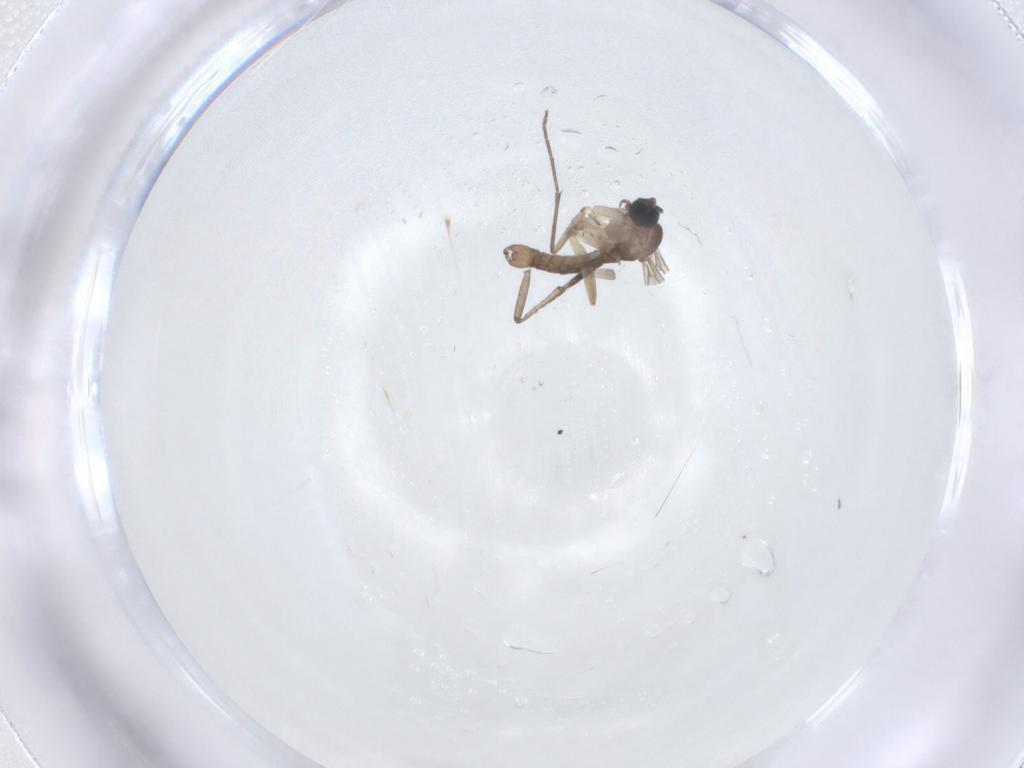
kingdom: Animalia
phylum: Arthropoda
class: Insecta
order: Diptera
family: Sciaridae
